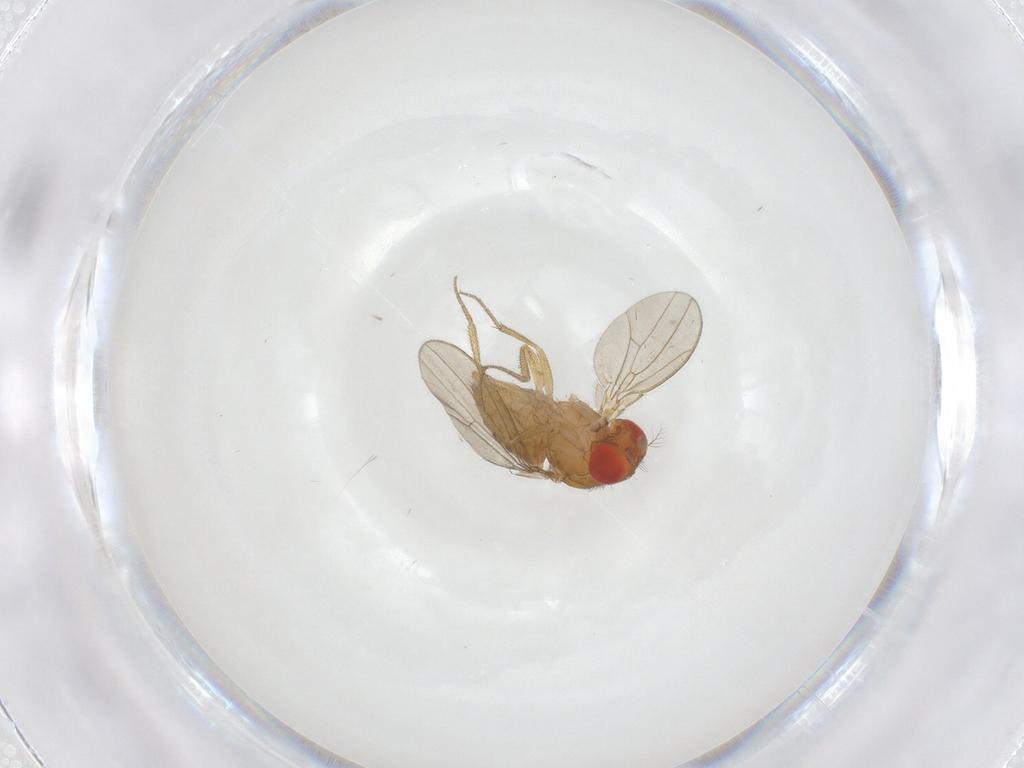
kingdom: Animalia
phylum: Arthropoda
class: Insecta
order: Diptera
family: Drosophilidae
